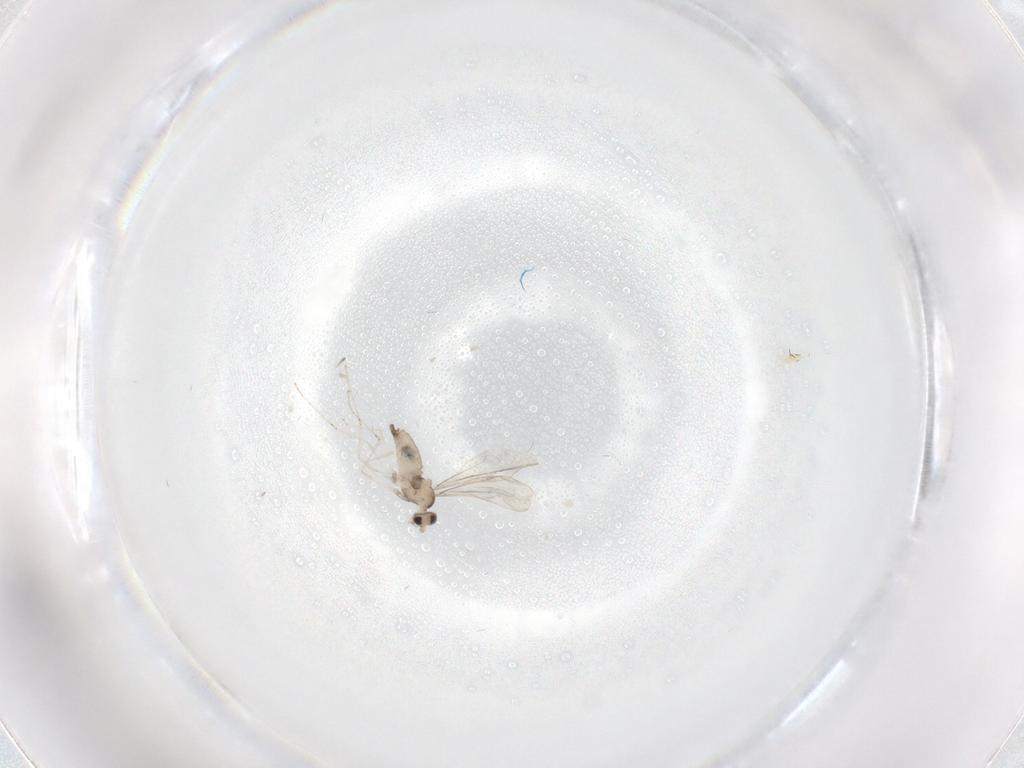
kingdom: Animalia
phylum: Arthropoda
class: Insecta
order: Diptera
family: Cecidomyiidae
